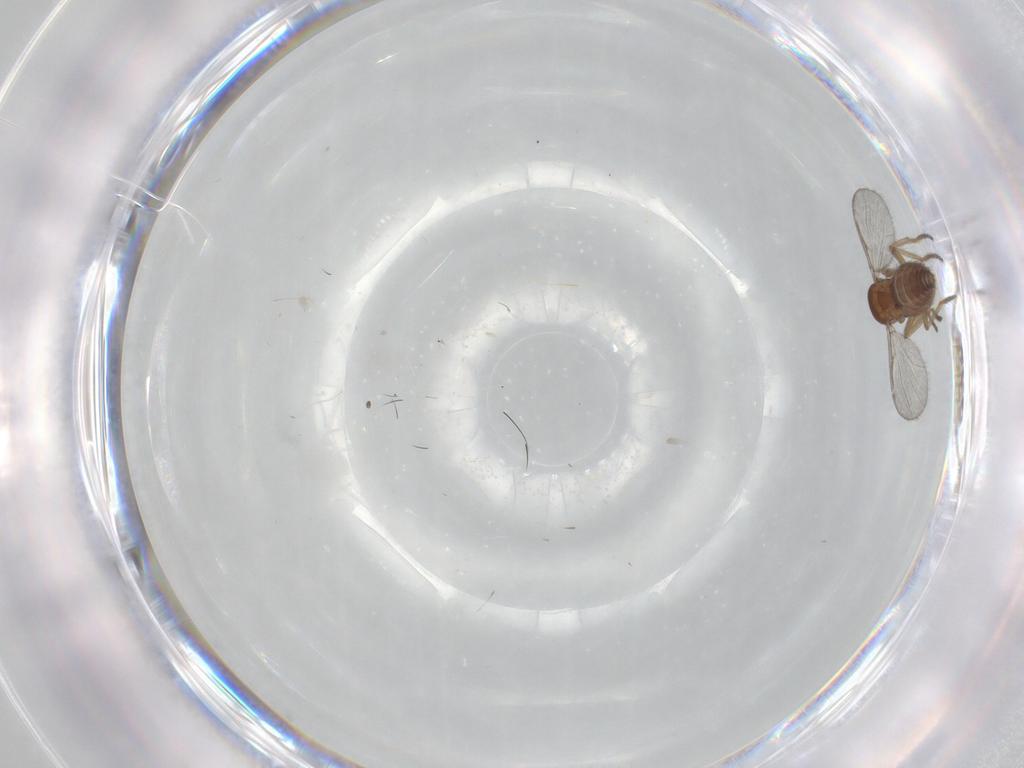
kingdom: Animalia
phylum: Arthropoda
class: Insecta
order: Diptera
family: Ceratopogonidae
